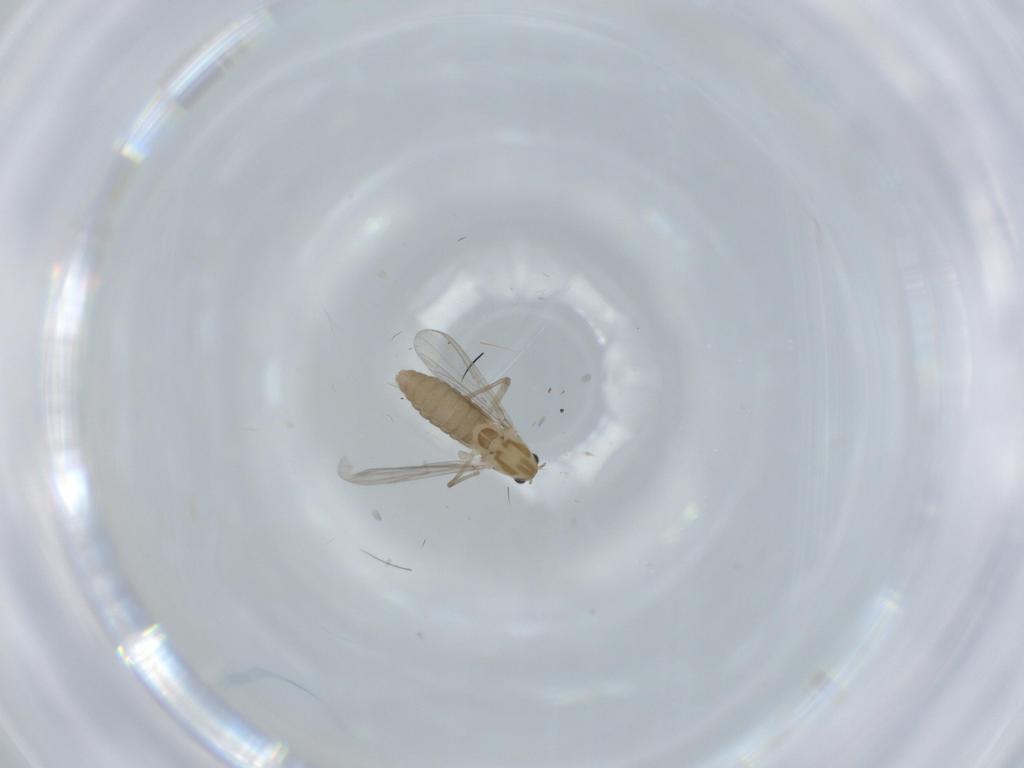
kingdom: Animalia
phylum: Arthropoda
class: Insecta
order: Diptera
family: Chironomidae
